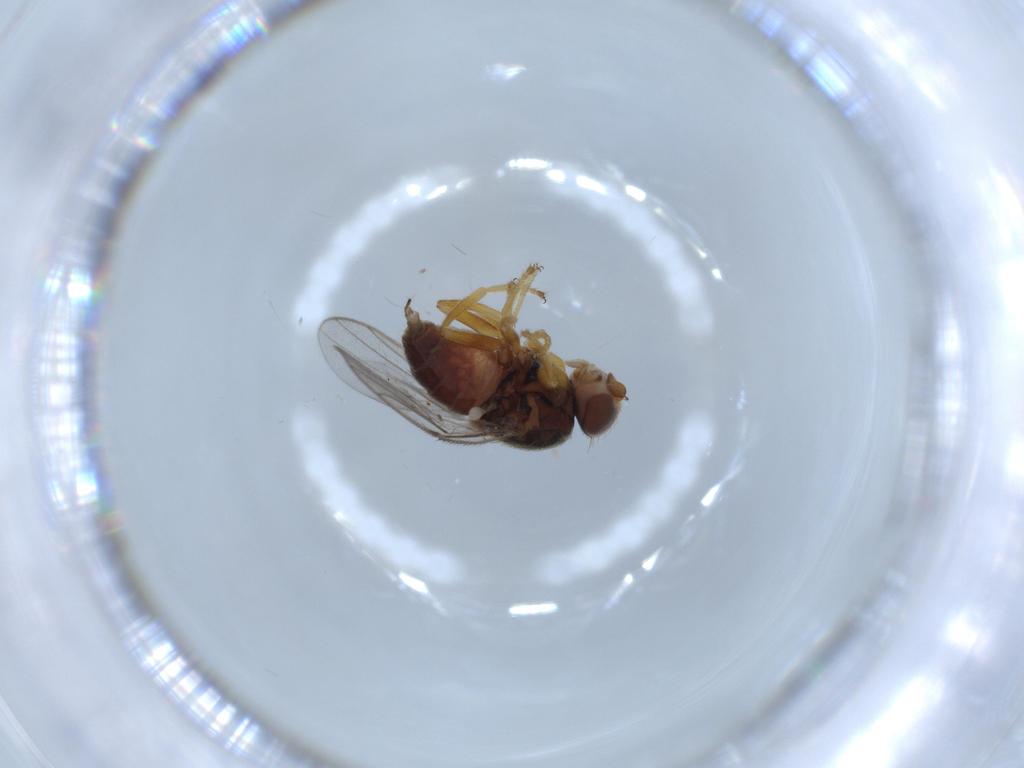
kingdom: Animalia
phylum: Arthropoda
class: Insecta
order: Diptera
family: Chloropidae
